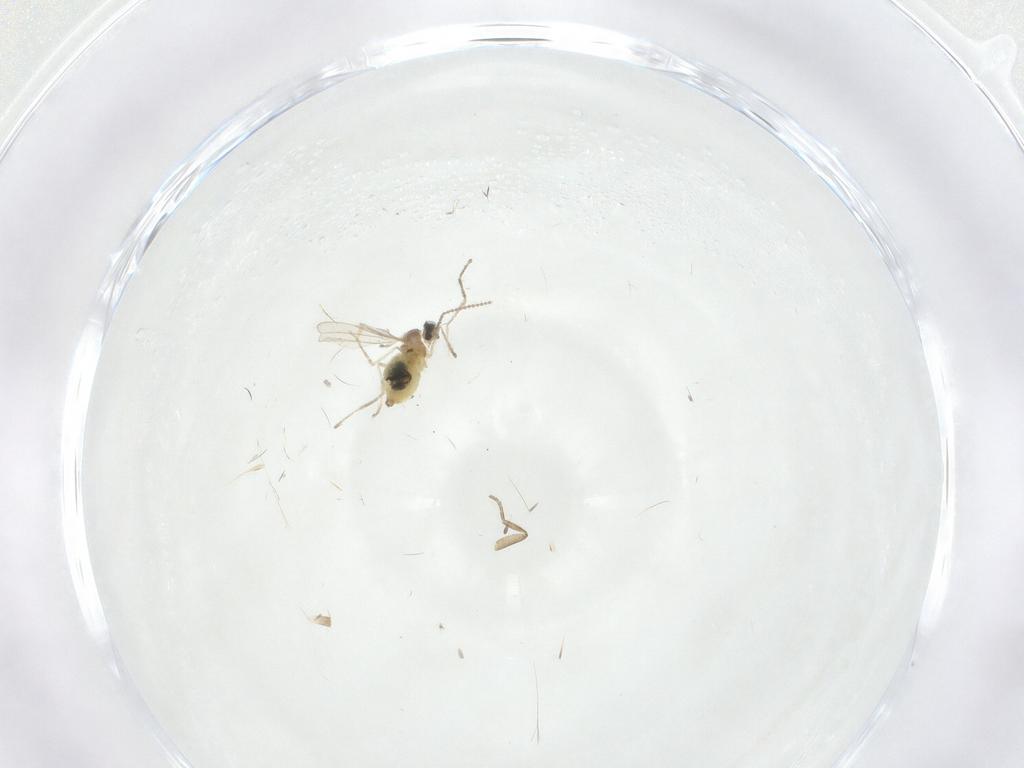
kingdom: Animalia
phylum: Arthropoda
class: Insecta
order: Diptera
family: Cecidomyiidae
